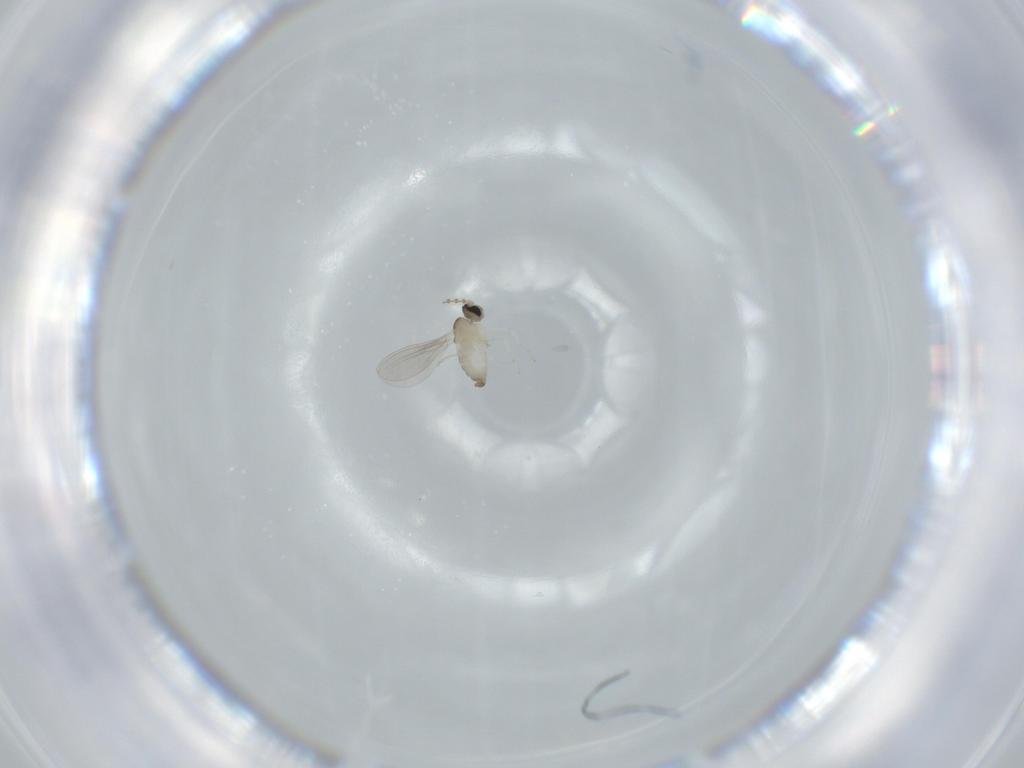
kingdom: Animalia
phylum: Arthropoda
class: Insecta
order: Diptera
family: Cecidomyiidae
